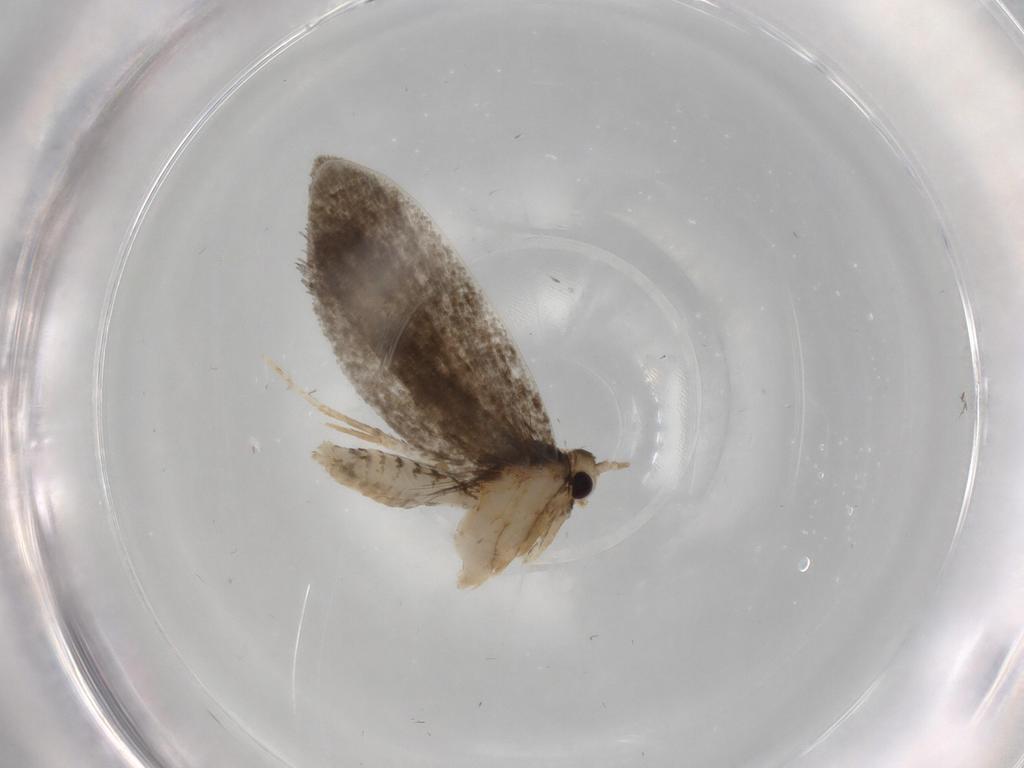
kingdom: Animalia
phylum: Arthropoda
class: Insecta
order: Lepidoptera
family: Psychidae
